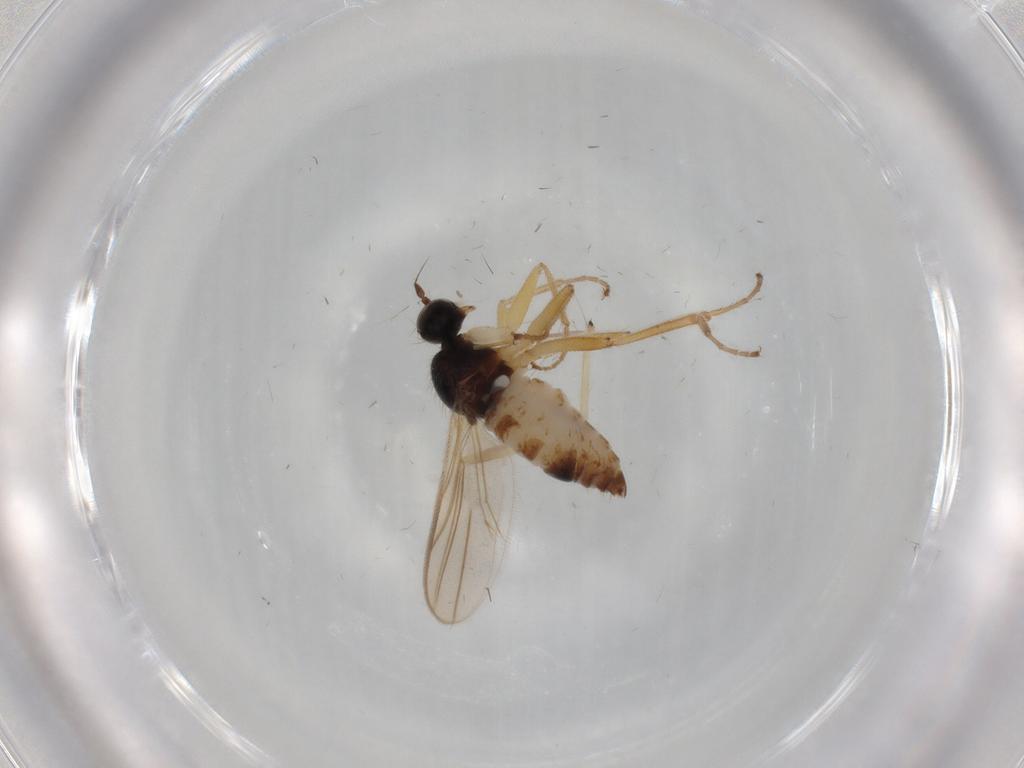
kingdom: Animalia
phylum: Arthropoda
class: Insecta
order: Diptera
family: Hybotidae
